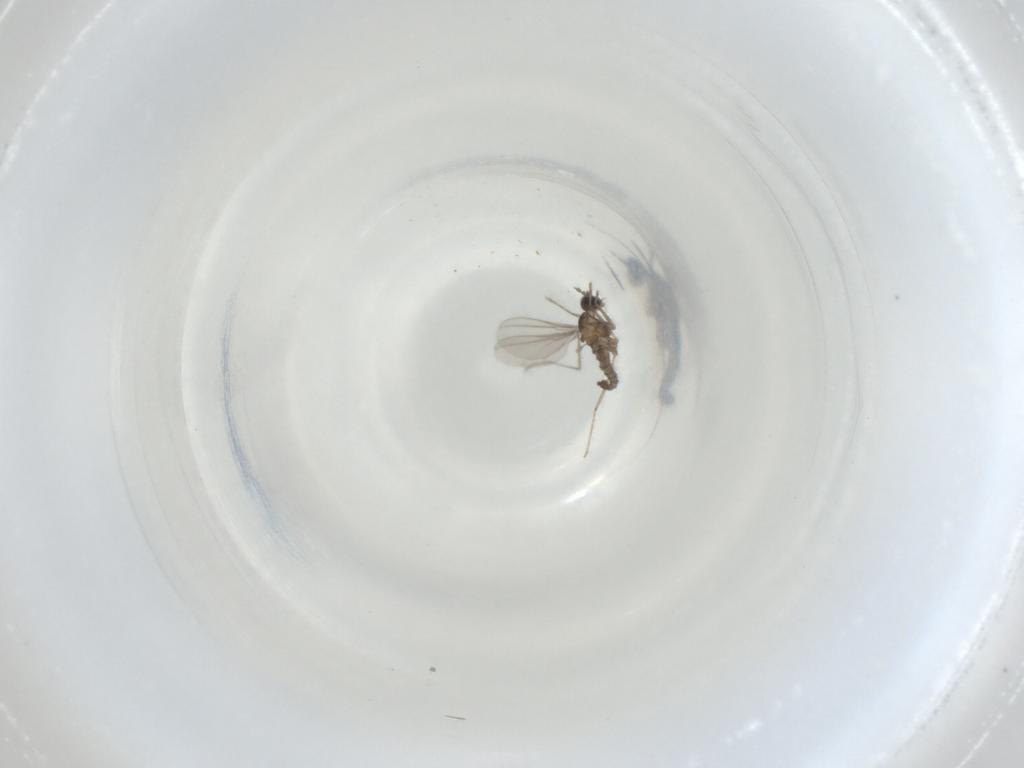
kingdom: Animalia
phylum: Arthropoda
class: Insecta
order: Diptera
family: Cecidomyiidae
